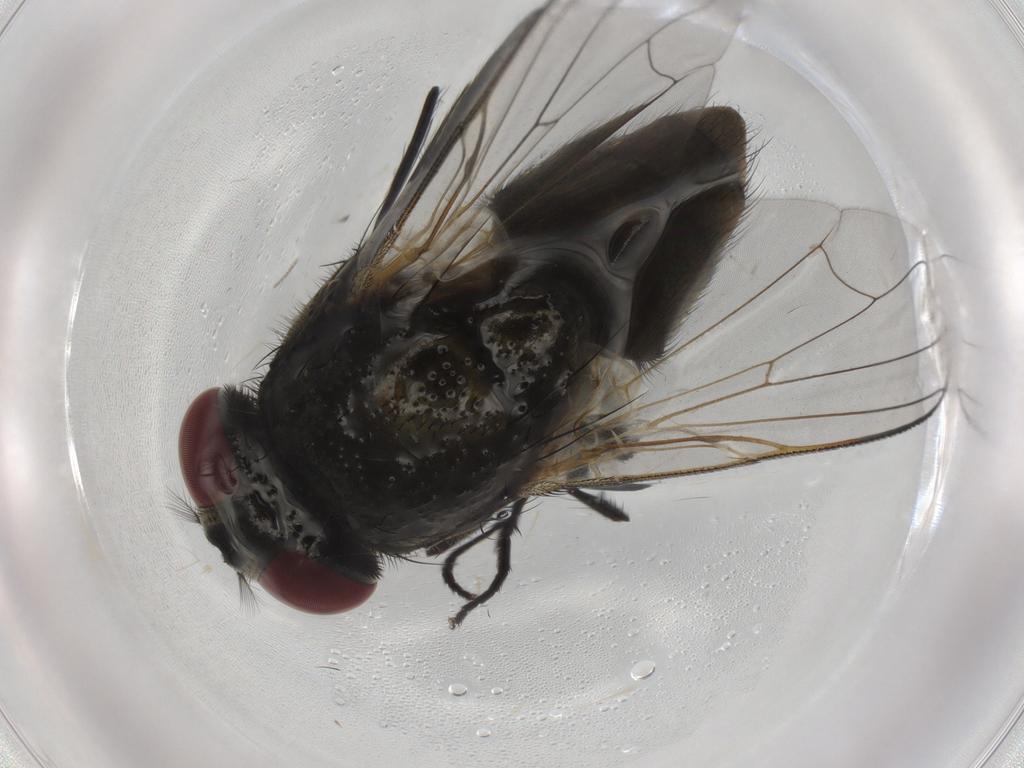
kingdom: Animalia
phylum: Arthropoda
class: Insecta
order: Diptera
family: Muscidae
